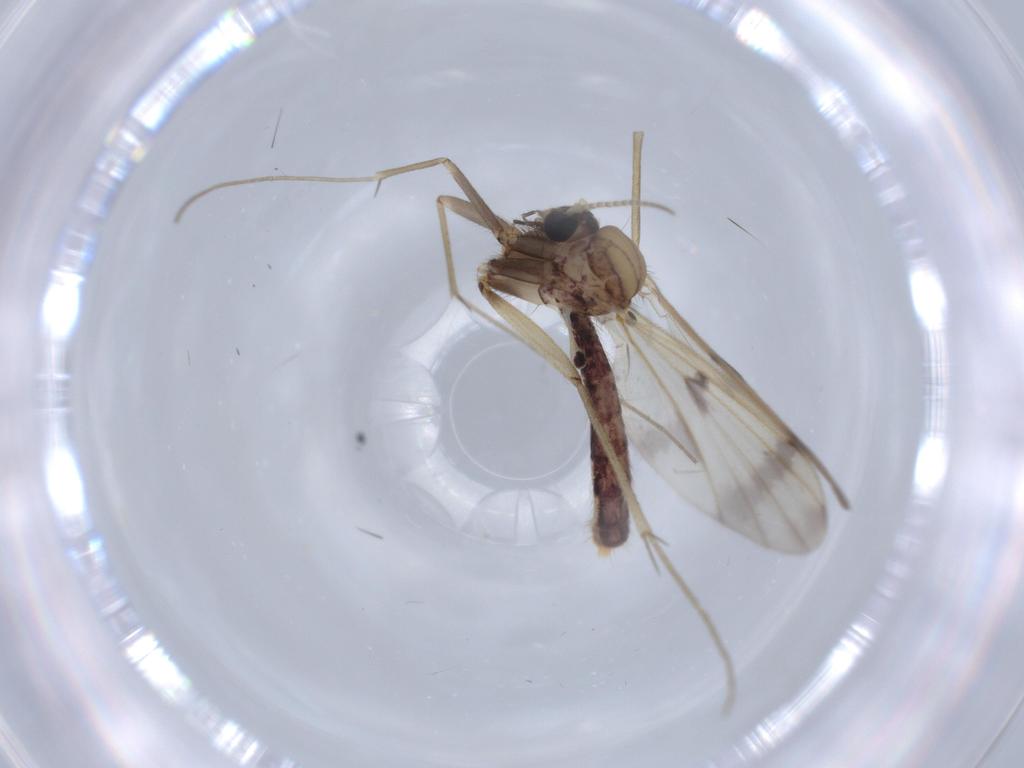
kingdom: Animalia
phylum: Arthropoda
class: Insecta
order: Diptera
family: Mycetophilidae
